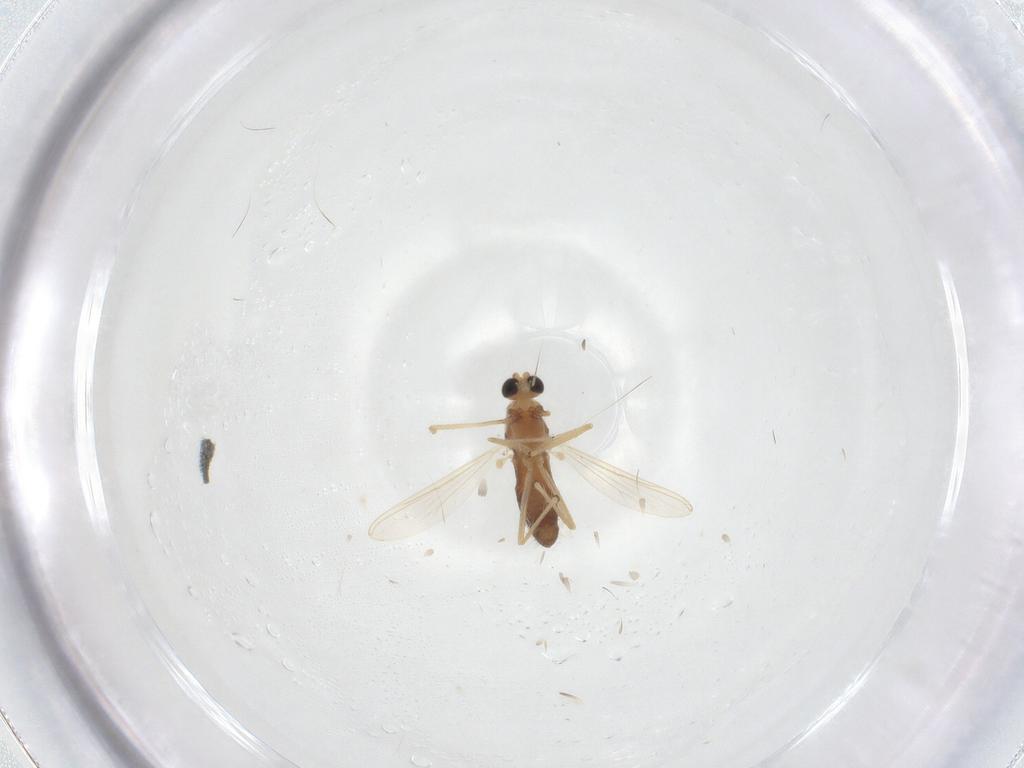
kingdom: Animalia
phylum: Arthropoda
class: Insecta
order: Diptera
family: Chironomidae
